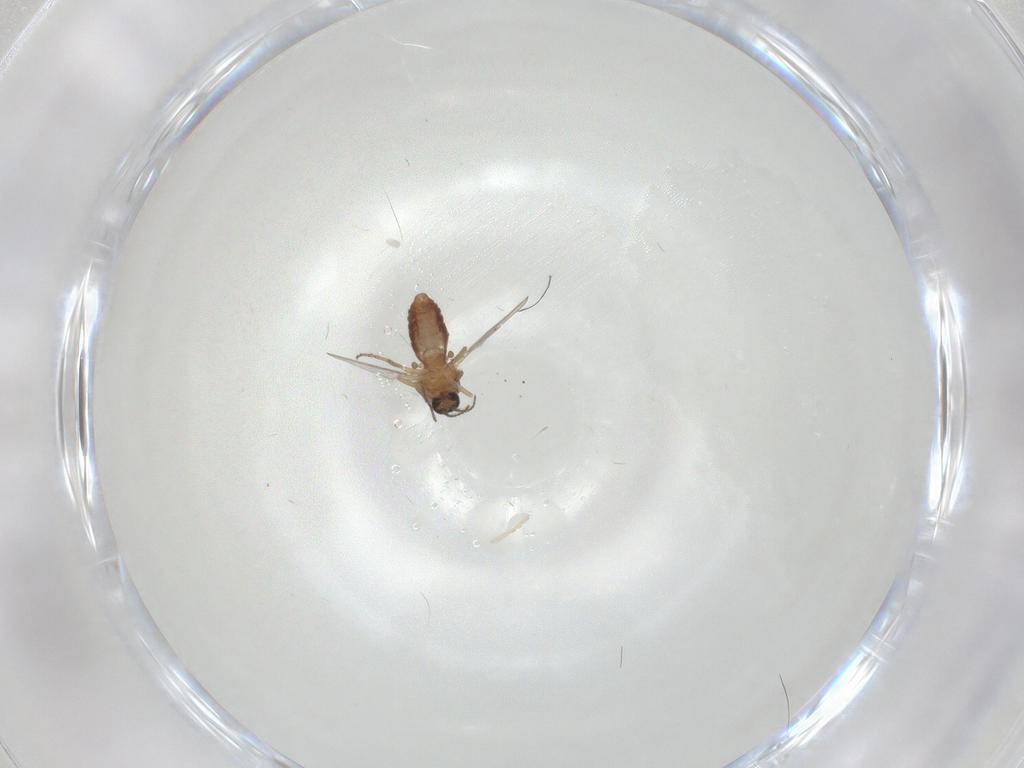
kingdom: Animalia
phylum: Arthropoda
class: Insecta
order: Diptera
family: Ceratopogonidae
